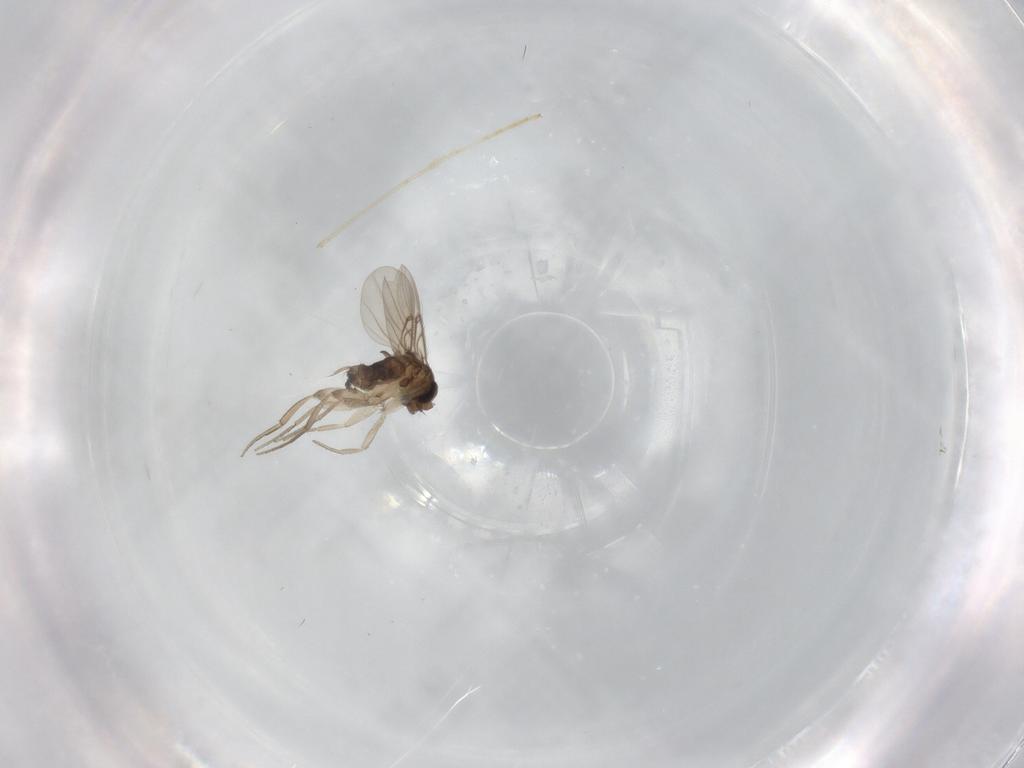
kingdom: Animalia
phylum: Arthropoda
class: Insecta
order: Diptera
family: Phoridae
